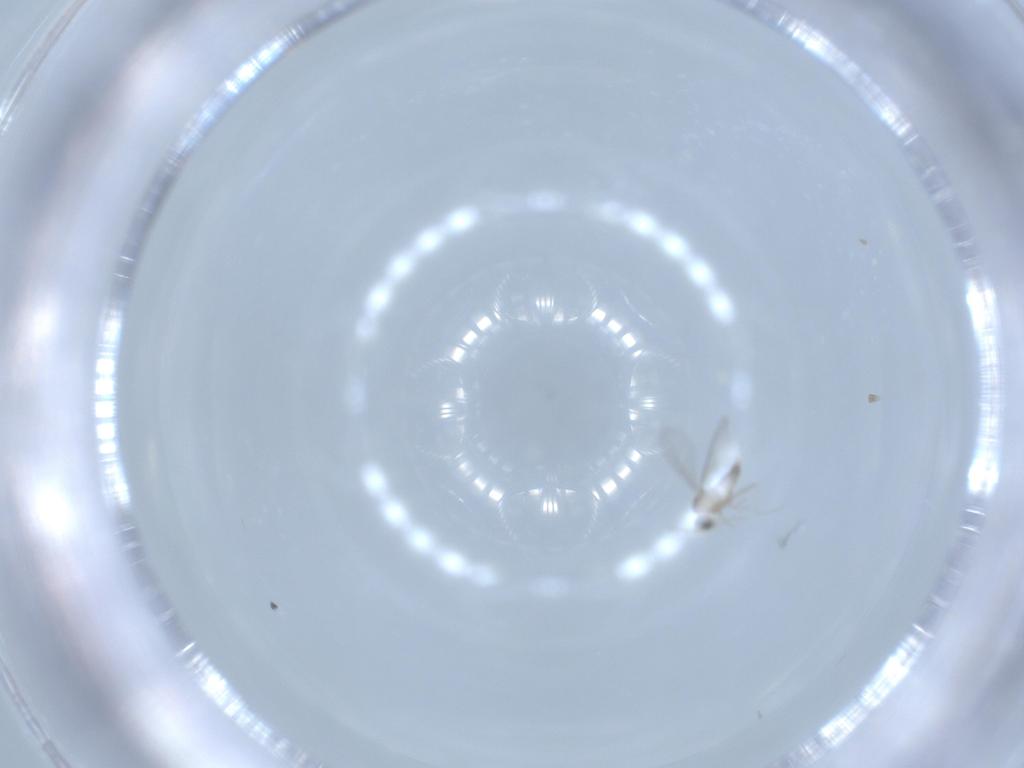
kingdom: Animalia
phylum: Arthropoda
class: Insecta
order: Diptera
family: Cecidomyiidae
